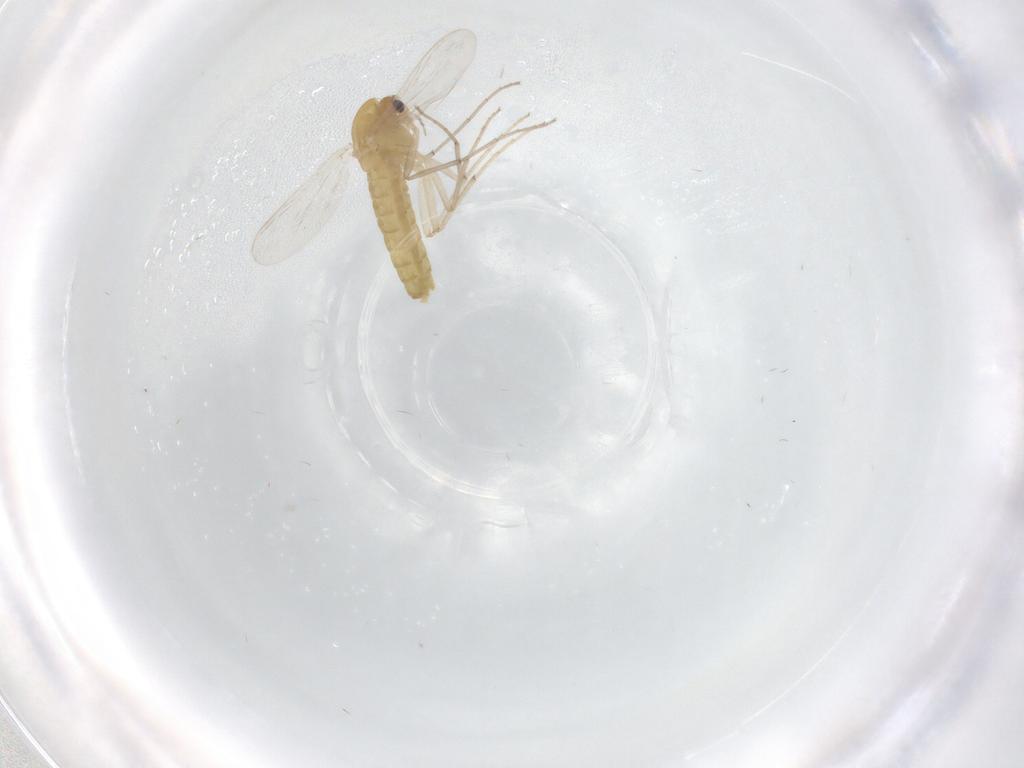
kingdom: Animalia
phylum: Arthropoda
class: Insecta
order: Diptera
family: Chironomidae
